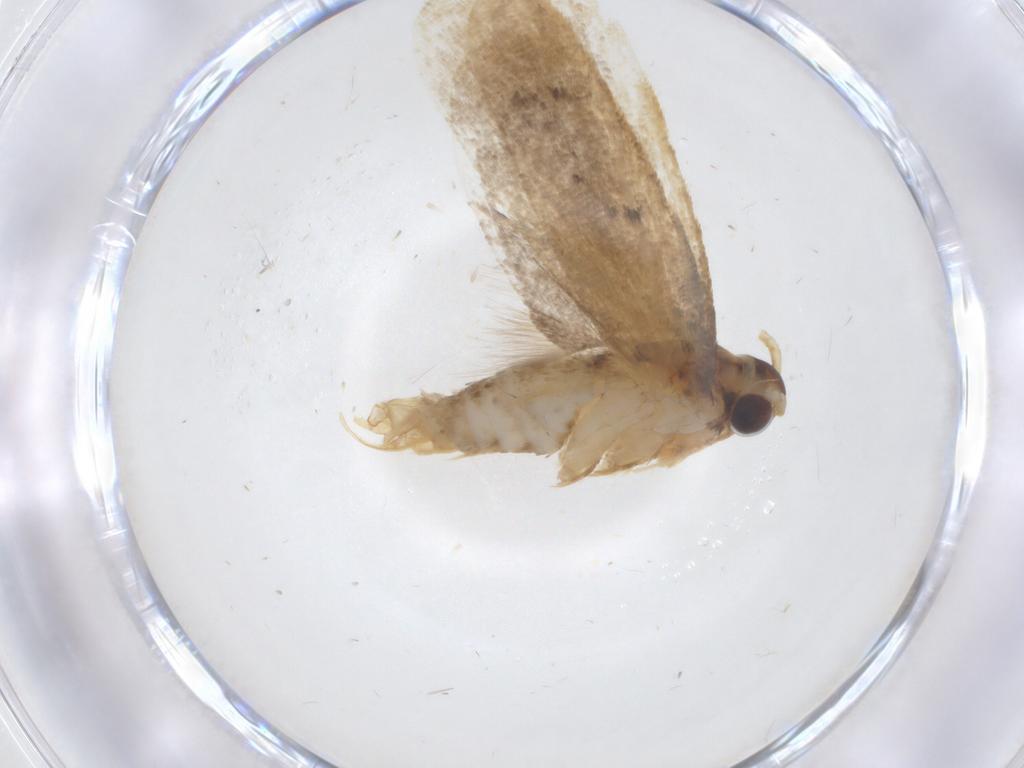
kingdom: Animalia
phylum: Arthropoda
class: Insecta
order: Lepidoptera
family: Lecithoceridae
